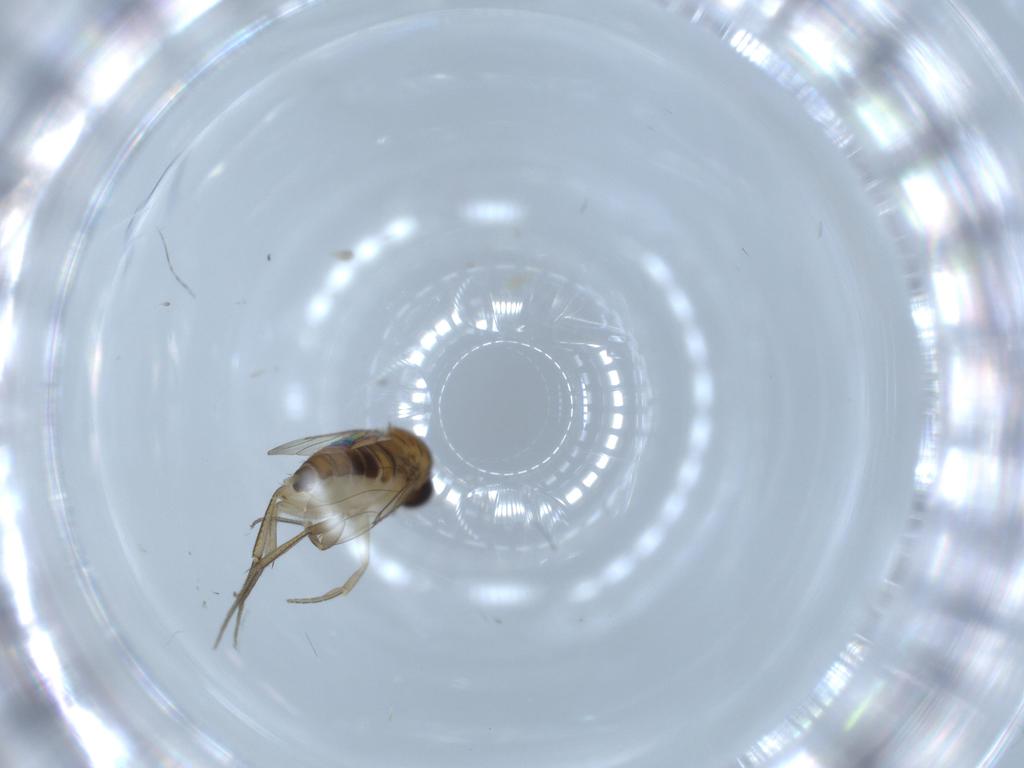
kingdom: Animalia
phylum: Arthropoda
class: Insecta
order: Diptera
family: Phoridae
